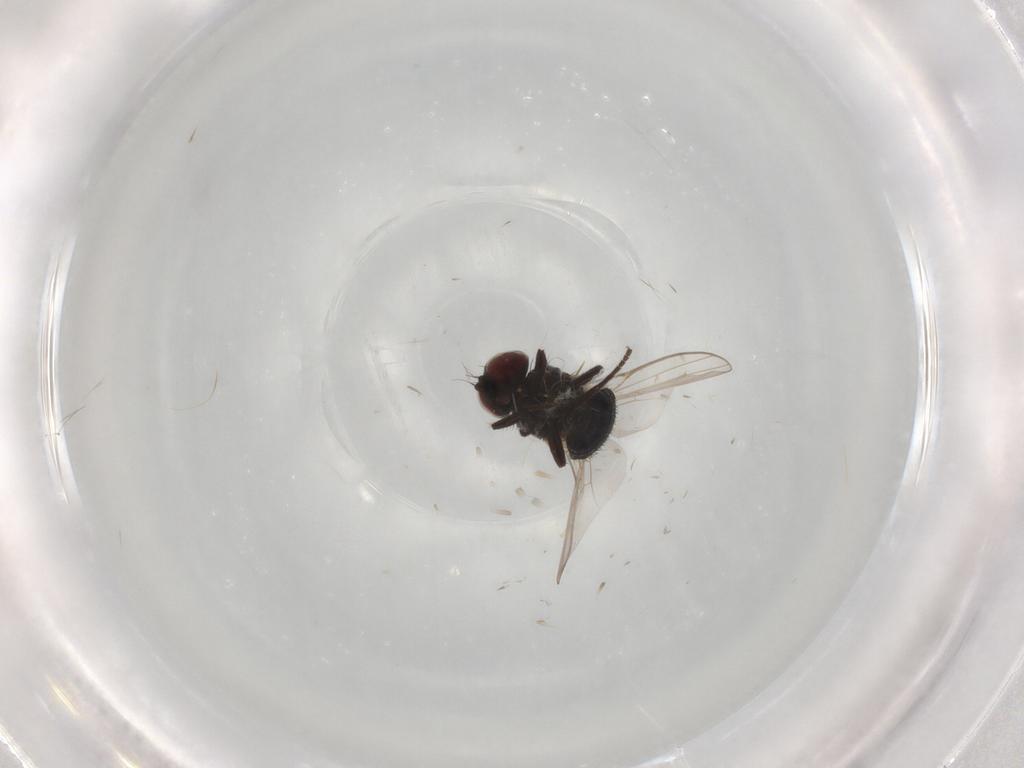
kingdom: Animalia
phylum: Arthropoda
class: Insecta
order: Diptera
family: Agromyzidae
